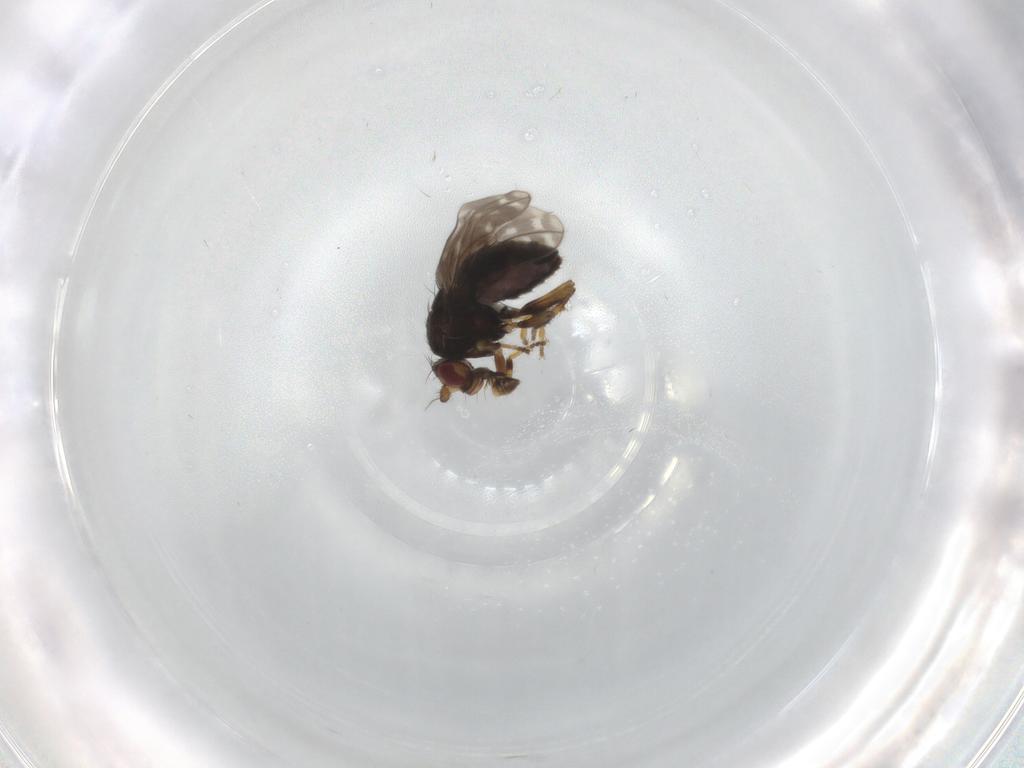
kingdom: Animalia
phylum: Arthropoda
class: Insecta
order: Diptera
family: Sphaeroceridae
